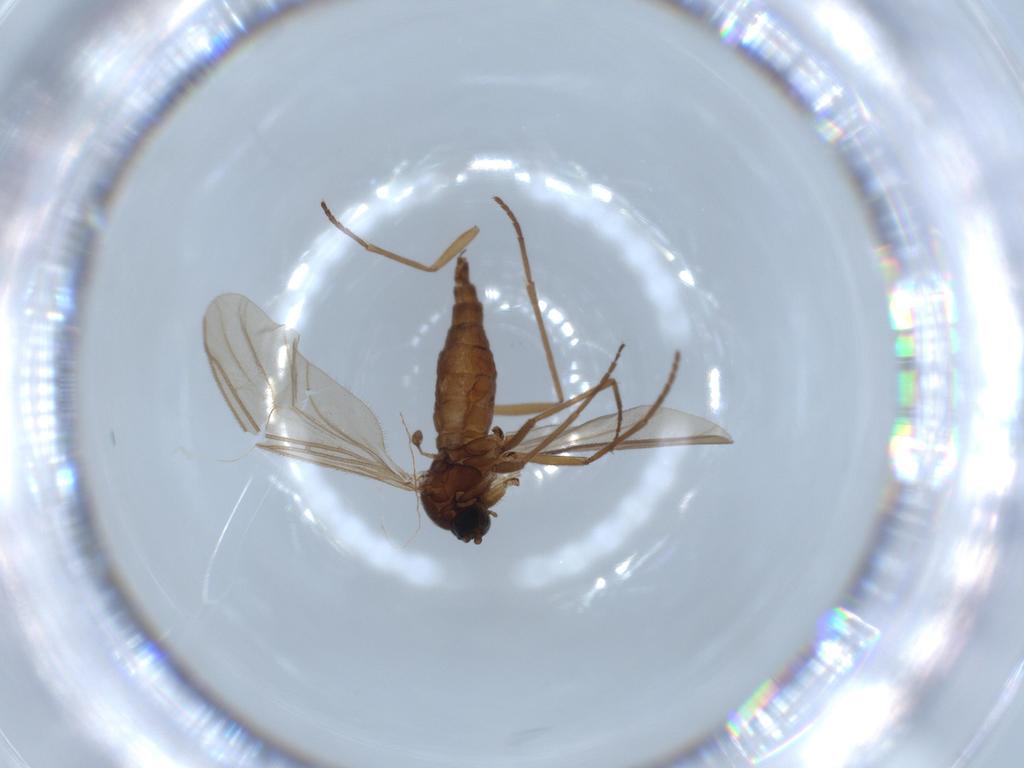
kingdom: Animalia
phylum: Arthropoda
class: Insecta
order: Diptera
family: Sciaridae
